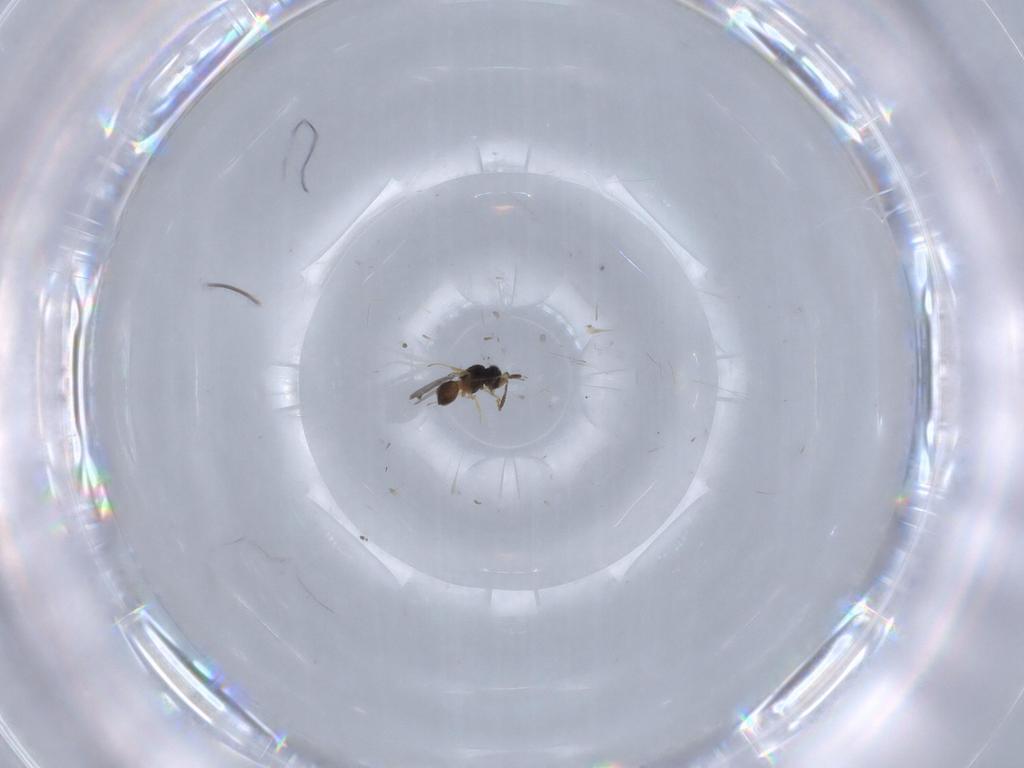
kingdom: Animalia
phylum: Arthropoda
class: Insecta
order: Hymenoptera
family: Scelionidae
